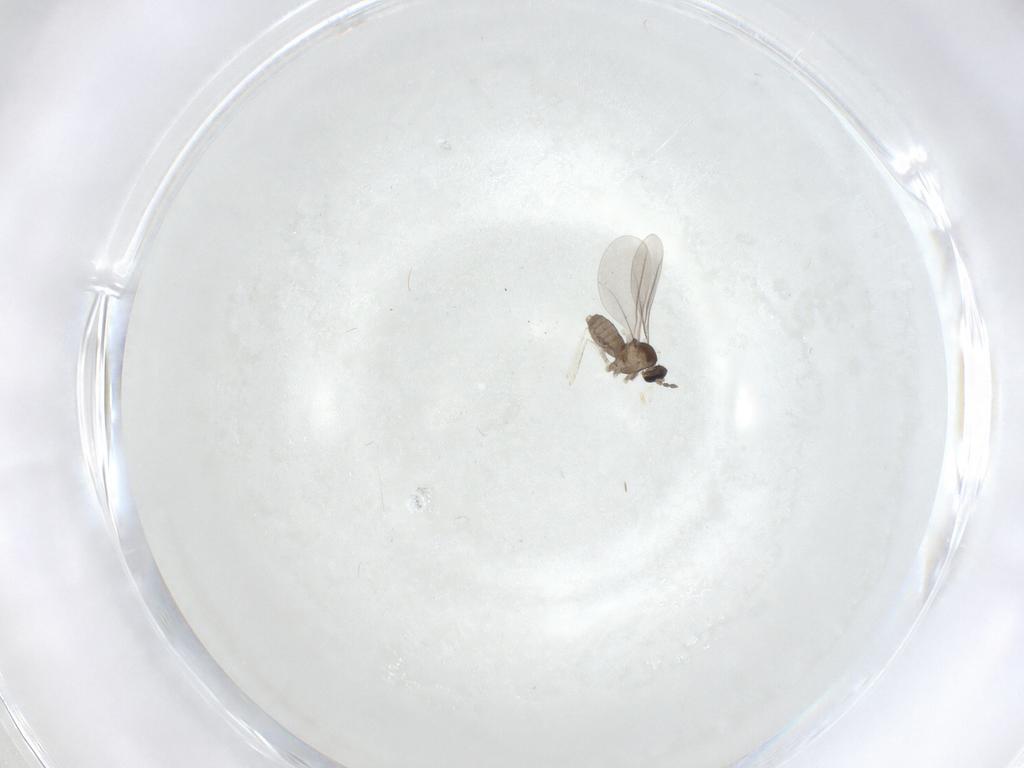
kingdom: Animalia
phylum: Arthropoda
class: Insecta
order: Diptera
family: Cecidomyiidae
